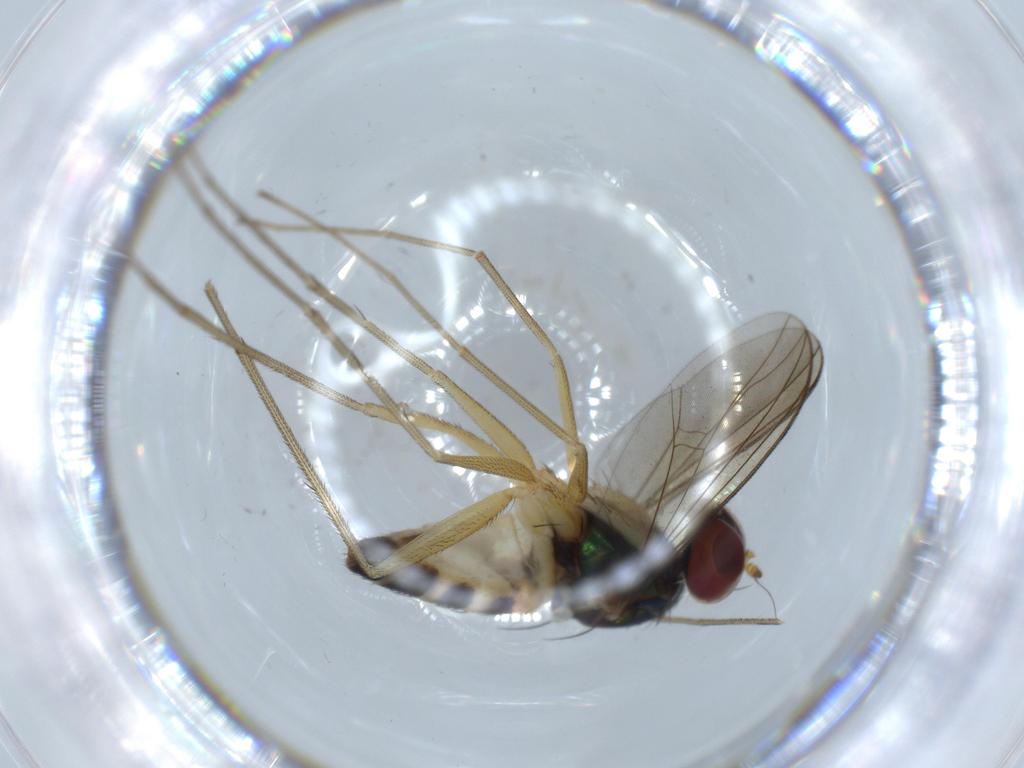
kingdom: Animalia
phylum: Arthropoda
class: Insecta
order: Diptera
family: Dolichopodidae
